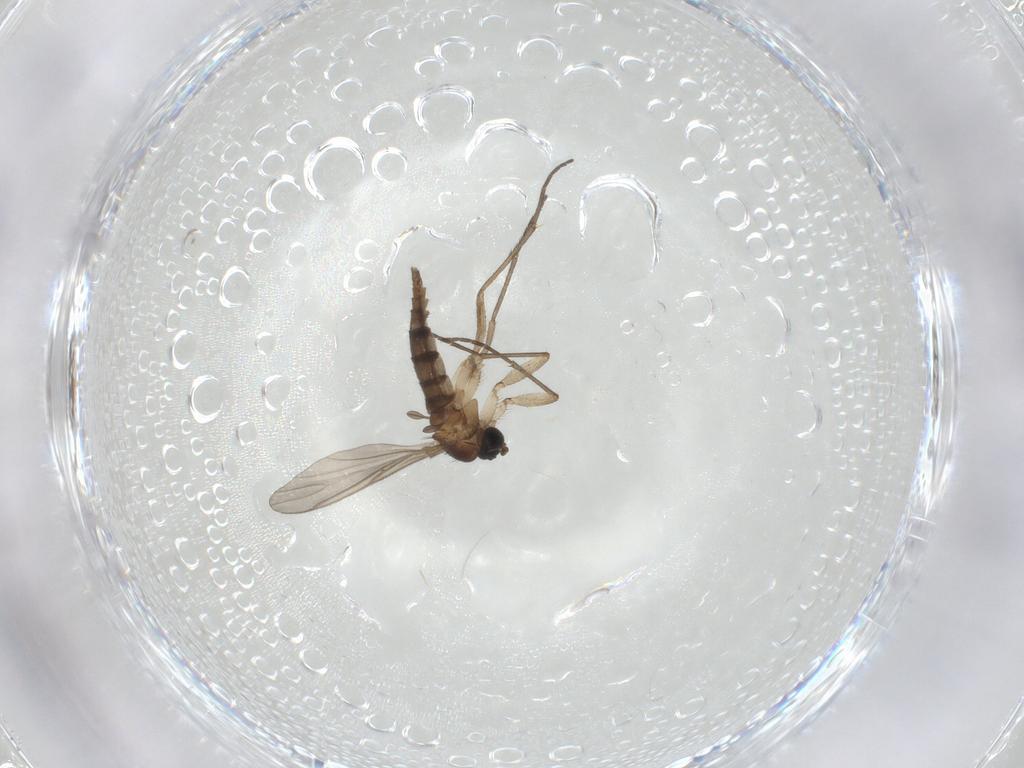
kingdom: Animalia
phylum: Arthropoda
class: Insecta
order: Diptera
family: Sciaridae
